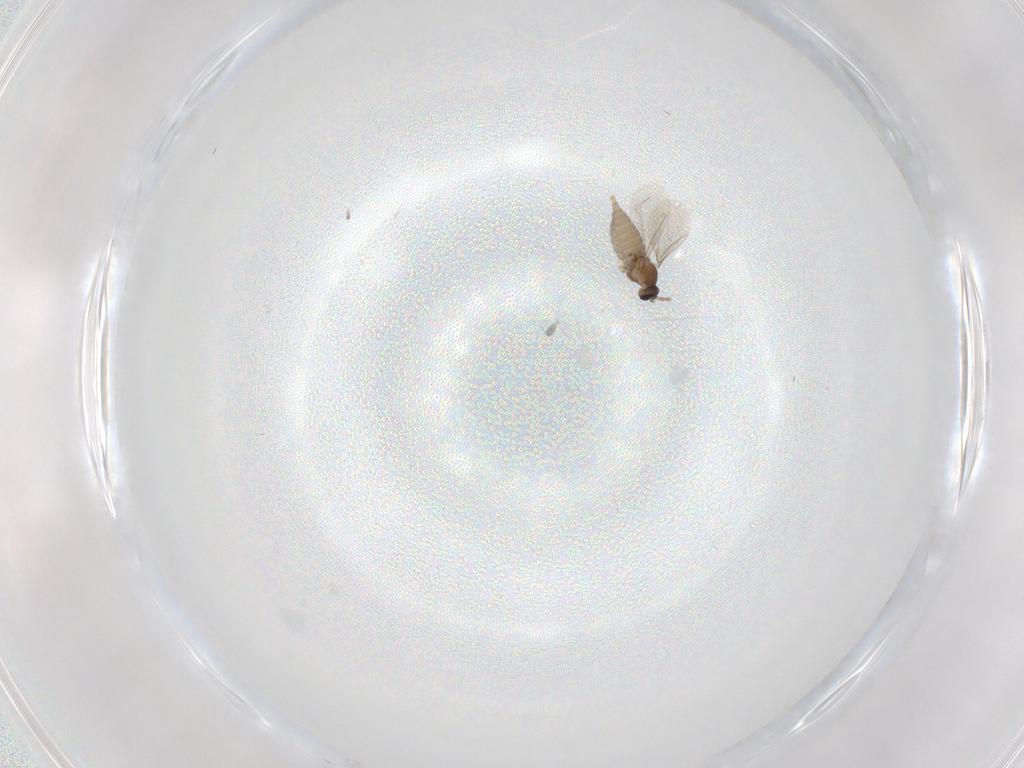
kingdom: Animalia
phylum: Arthropoda
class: Insecta
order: Diptera
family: Cecidomyiidae
